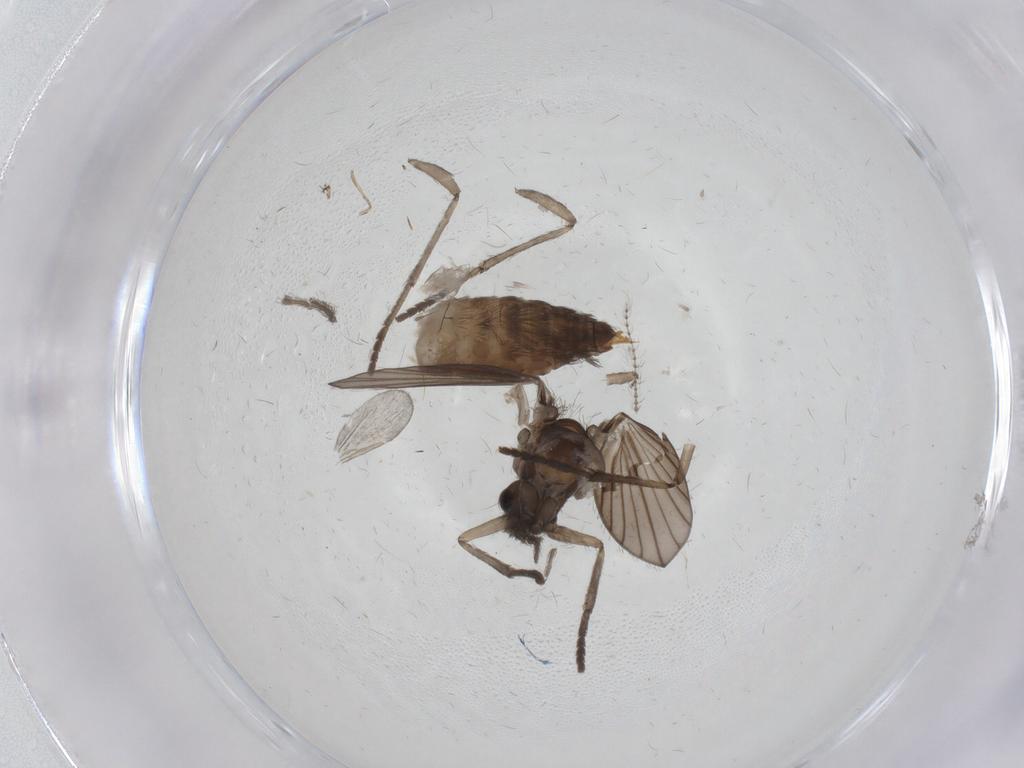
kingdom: Animalia
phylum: Arthropoda
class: Insecta
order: Diptera
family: Cecidomyiidae
